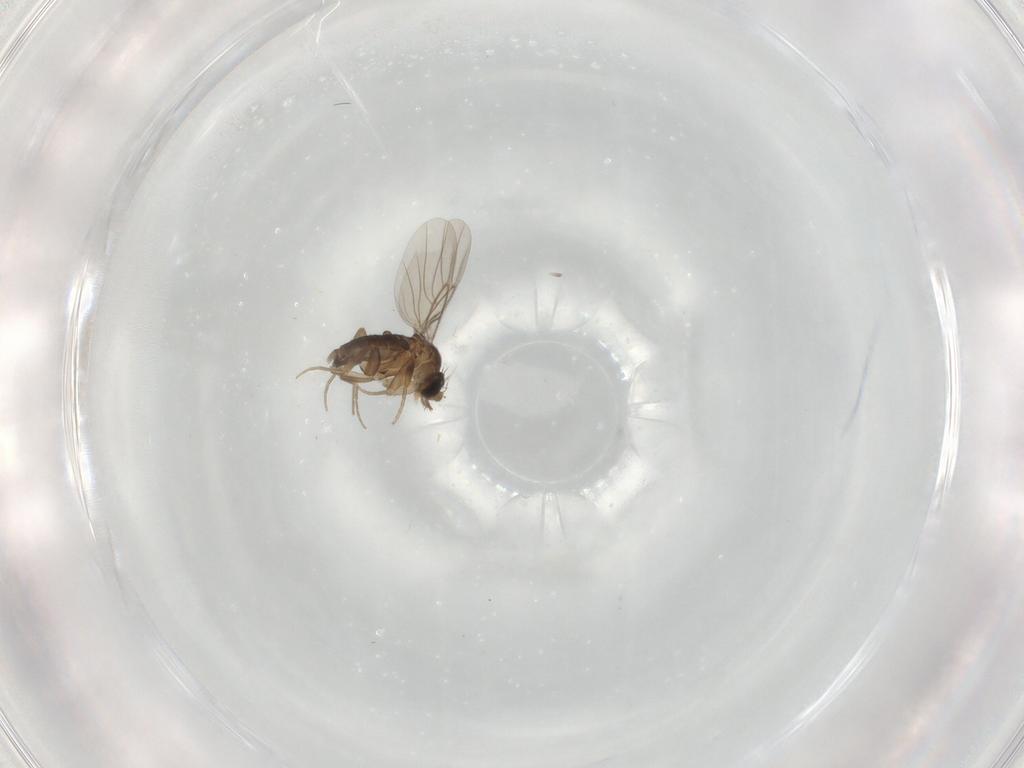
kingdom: Animalia
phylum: Arthropoda
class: Insecta
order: Diptera
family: Phoridae
